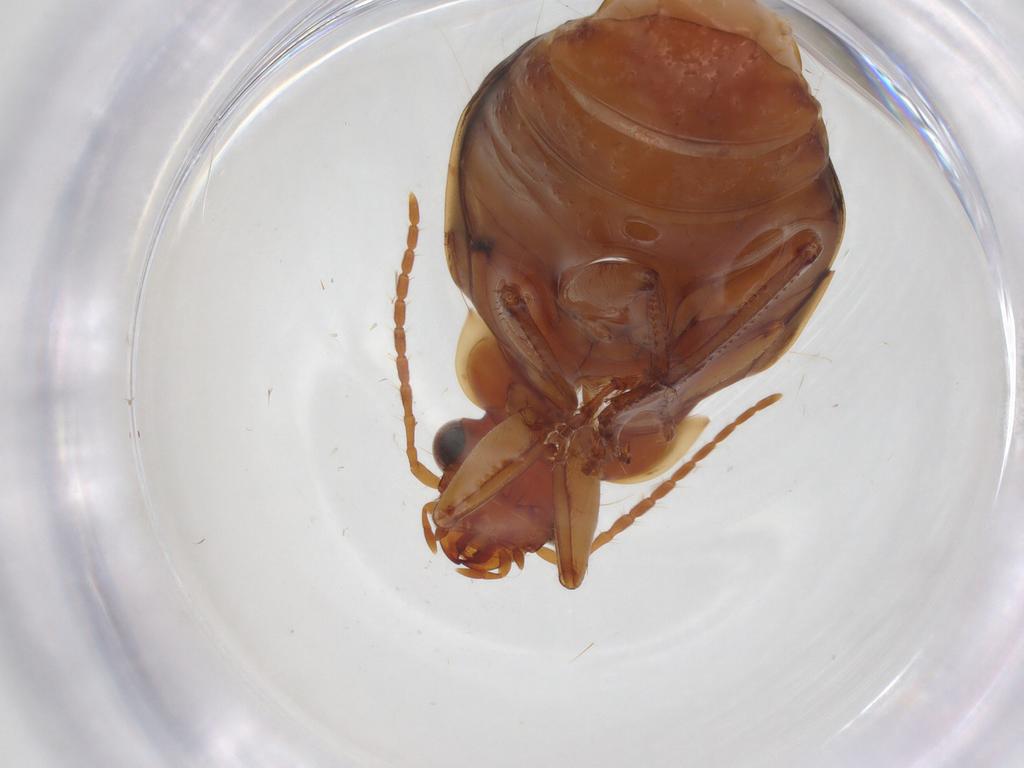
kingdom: Animalia
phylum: Arthropoda
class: Insecta
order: Coleoptera
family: Carabidae
